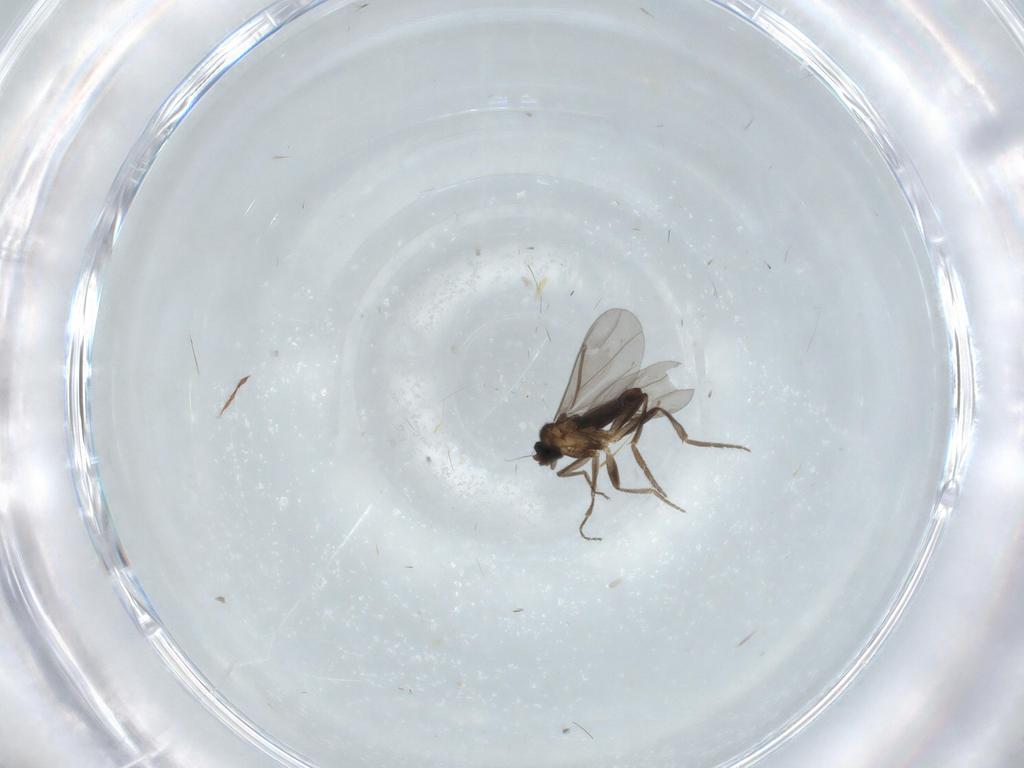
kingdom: Animalia
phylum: Arthropoda
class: Insecta
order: Diptera
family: Phoridae
